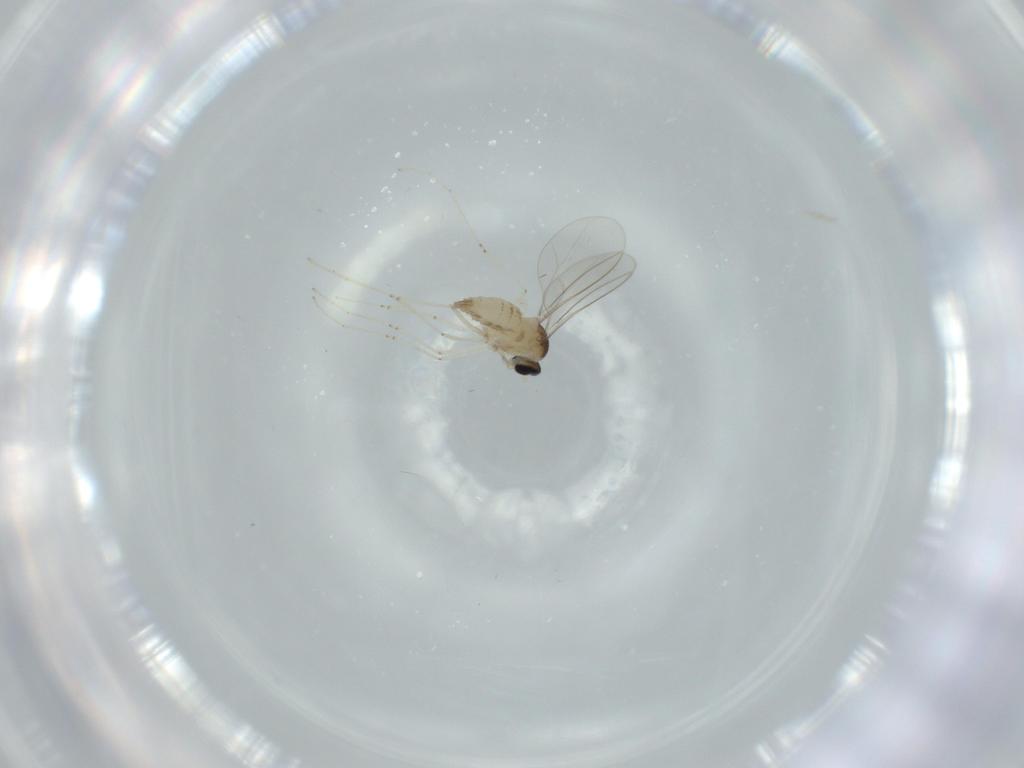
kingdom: Animalia
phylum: Arthropoda
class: Insecta
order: Diptera
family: Cecidomyiidae
